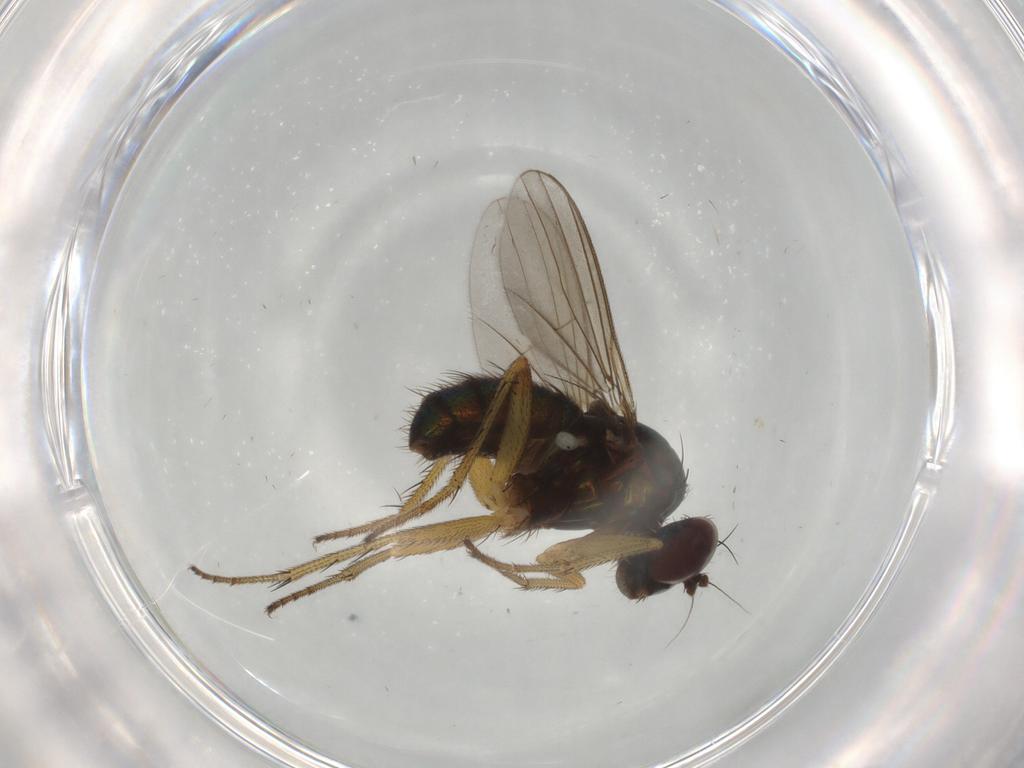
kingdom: Animalia
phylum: Arthropoda
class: Insecta
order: Diptera
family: Dolichopodidae
